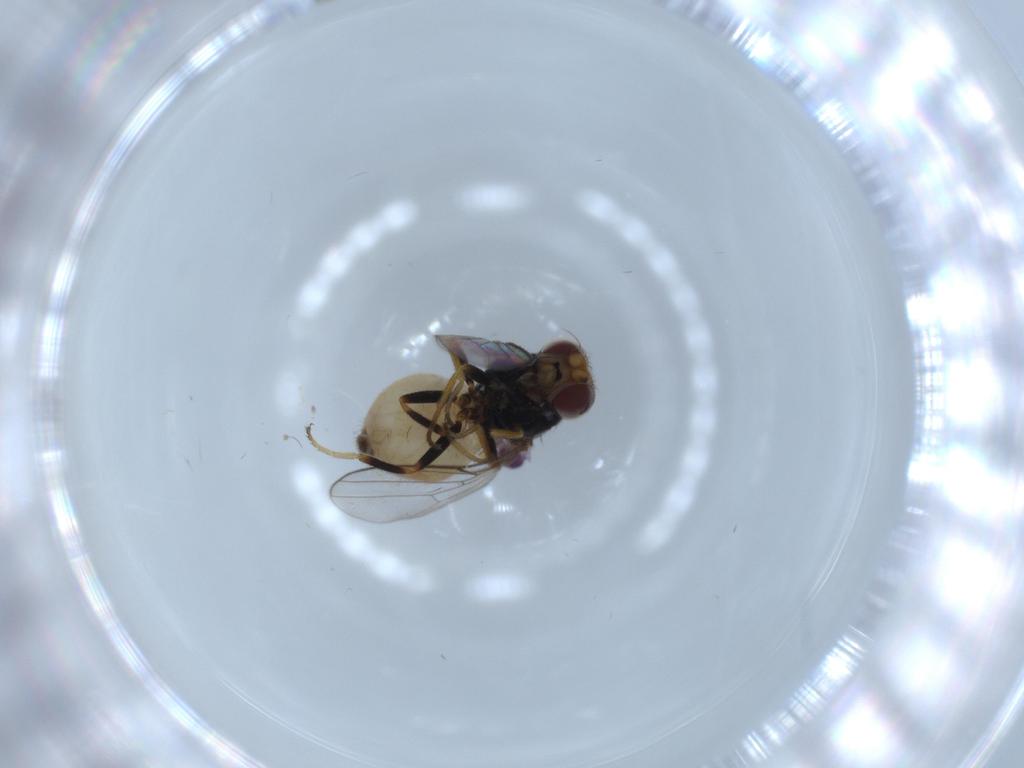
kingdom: Animalia
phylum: Arthropoda
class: Insecta
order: Diptera
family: Chloropidae
